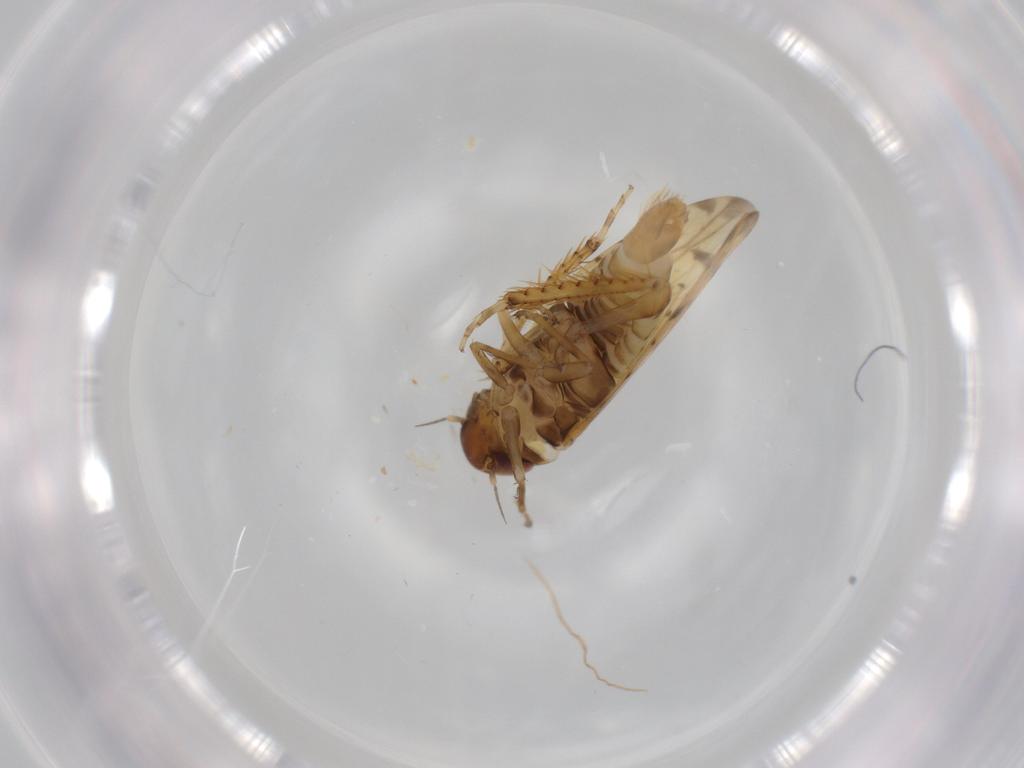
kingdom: Animalia
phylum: Arthropoda
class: Insecta
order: Hemiptera
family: Cicadellidae
